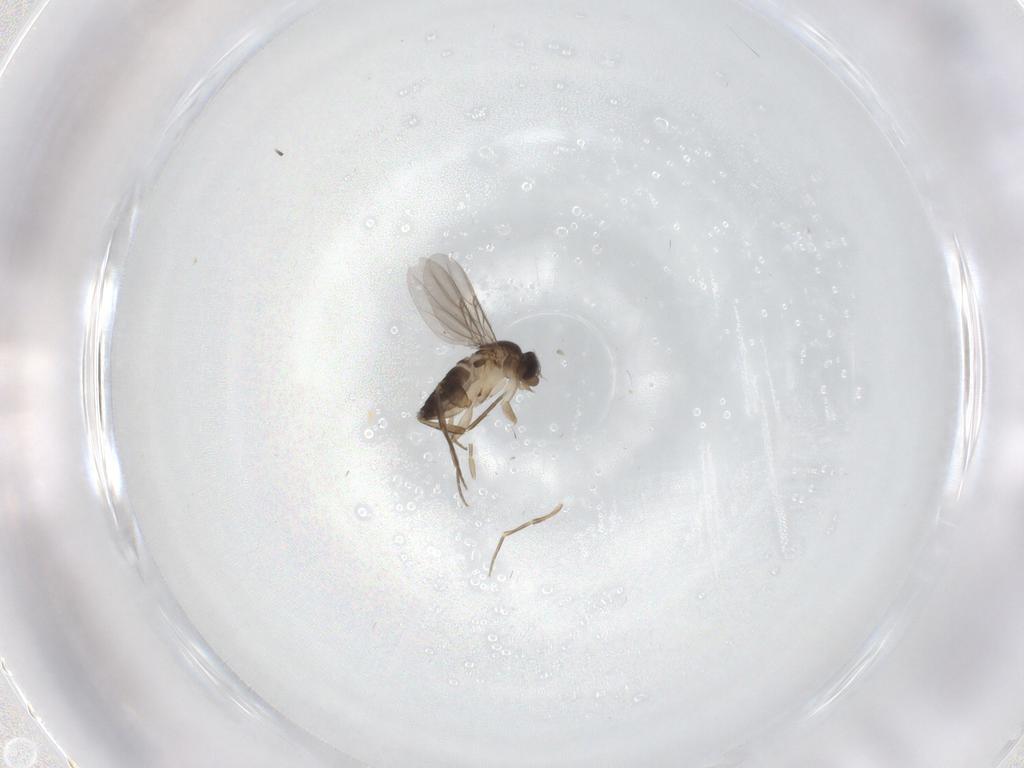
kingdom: Animalia
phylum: Arthropoda
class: Insecta
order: Diptera
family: Phoridae
